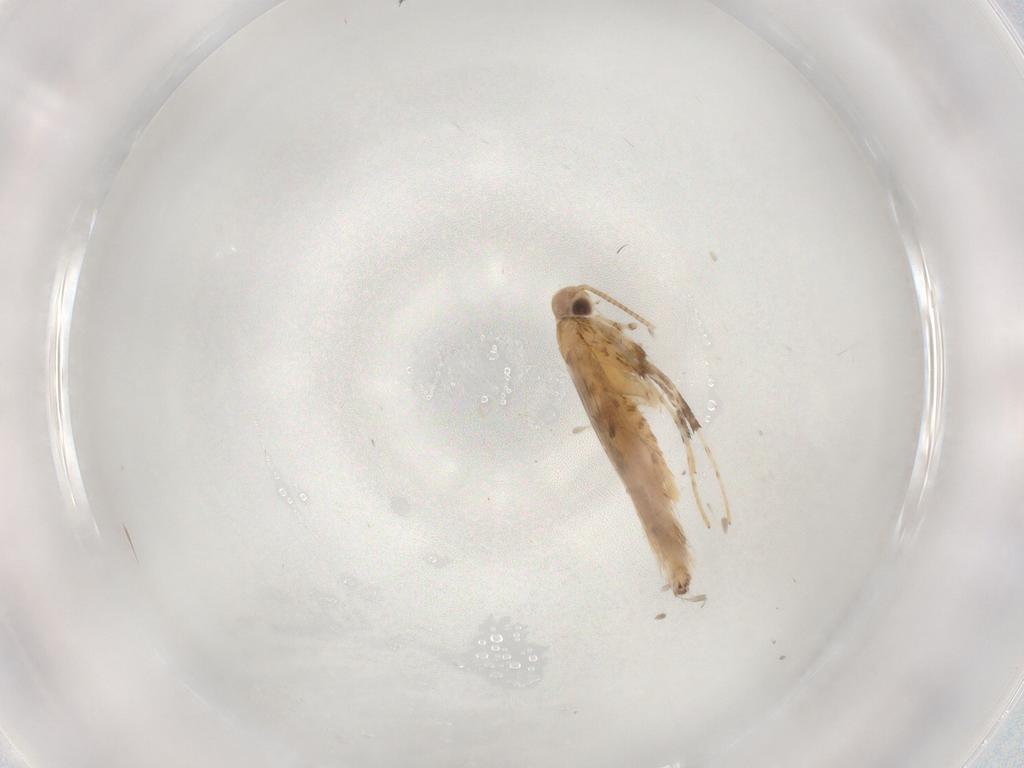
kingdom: Animalia
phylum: Arthropoda
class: Insecta
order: Lepidoptera
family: Gracillariidae
